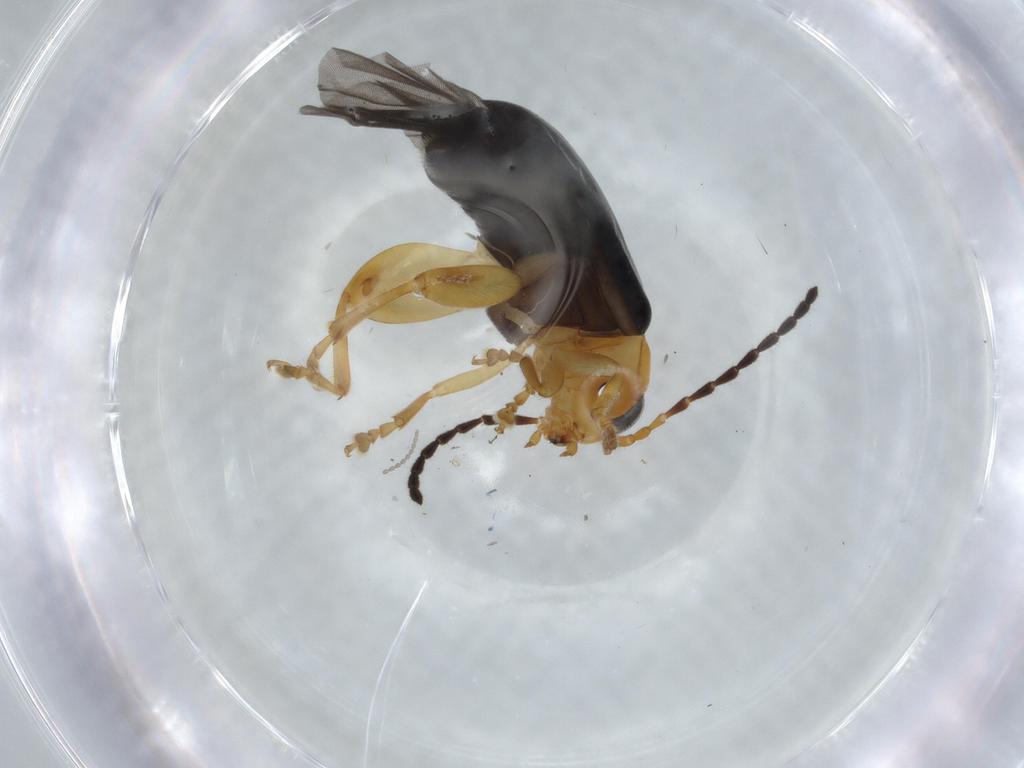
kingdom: Animalia
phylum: Arthropoda
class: Insecta
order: Coleoptera
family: Chrysomelidae
